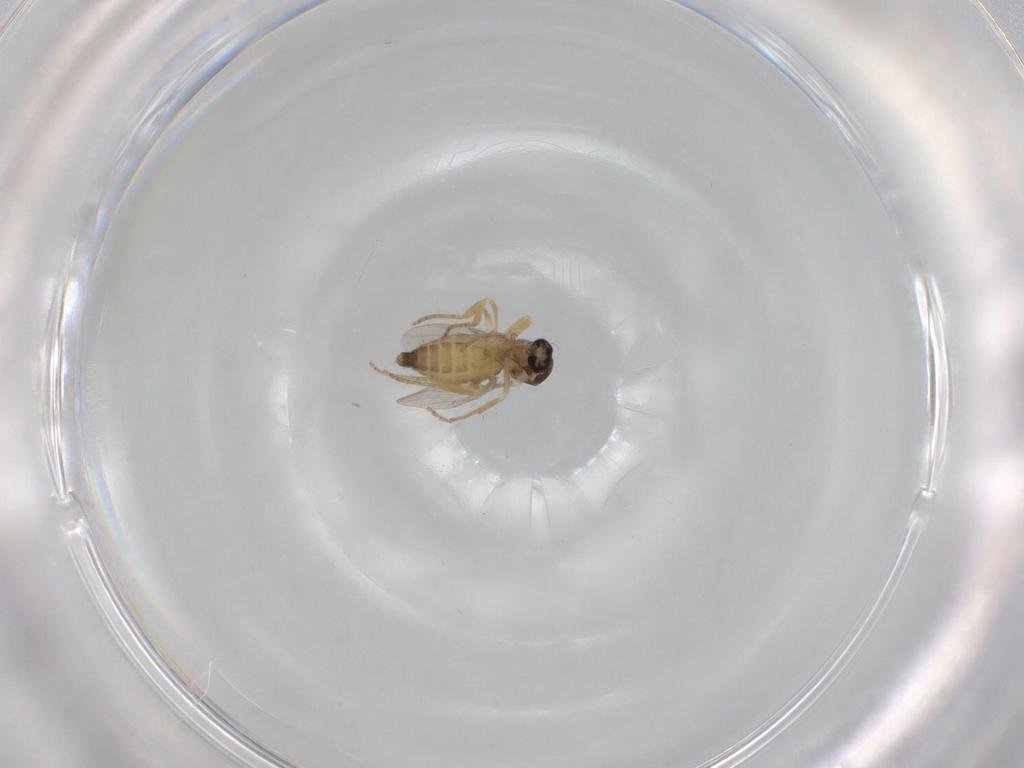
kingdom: Animalia
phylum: Arthropoda
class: Insecta
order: Diptera
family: Ceratopogonidae
